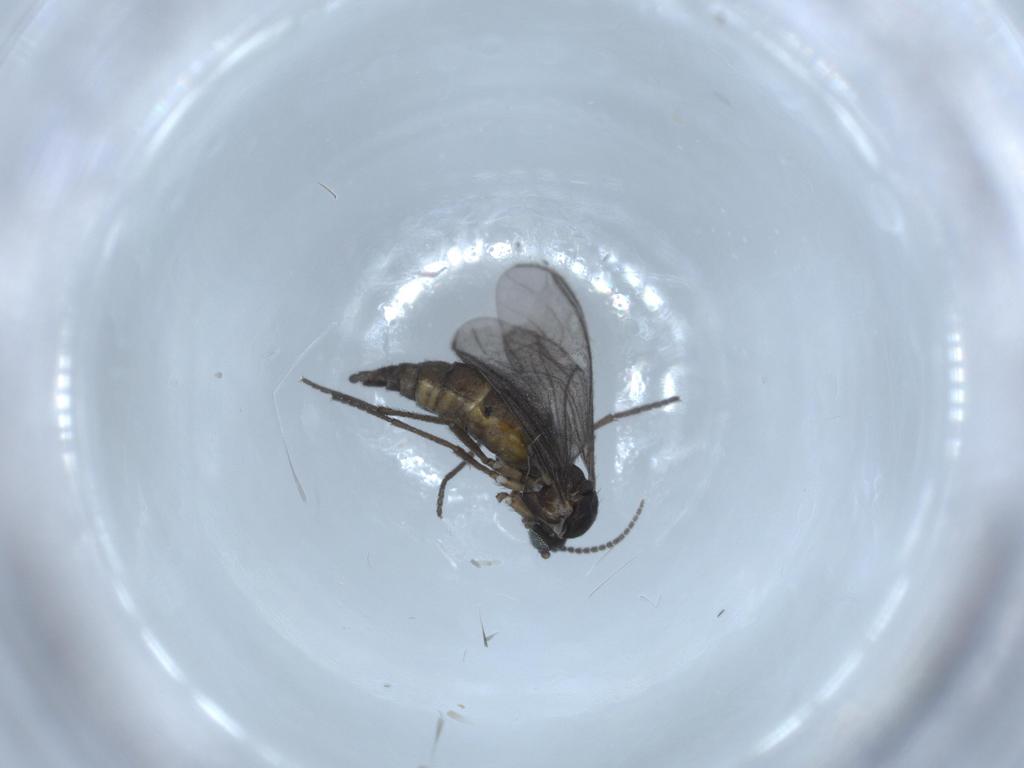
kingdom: Animalia
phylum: Arthropoda
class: Insecta
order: Diptera
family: Sciaridae
